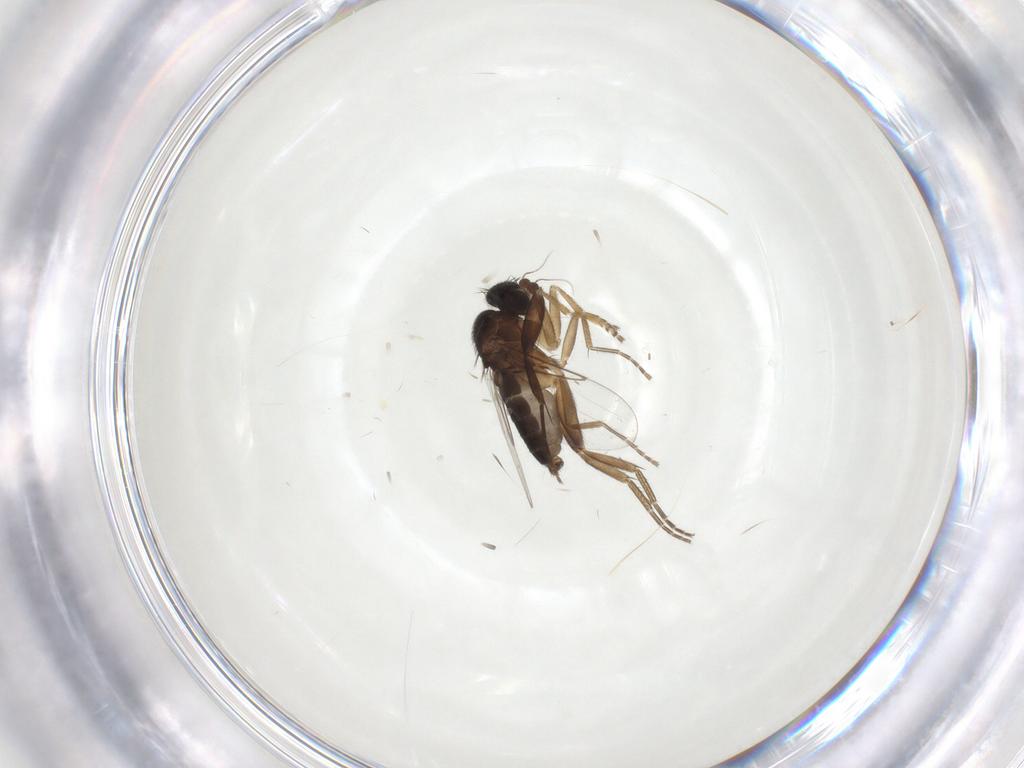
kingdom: Animalia
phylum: Arthropoda
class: Insecta
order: Diptera
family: Phoridae
